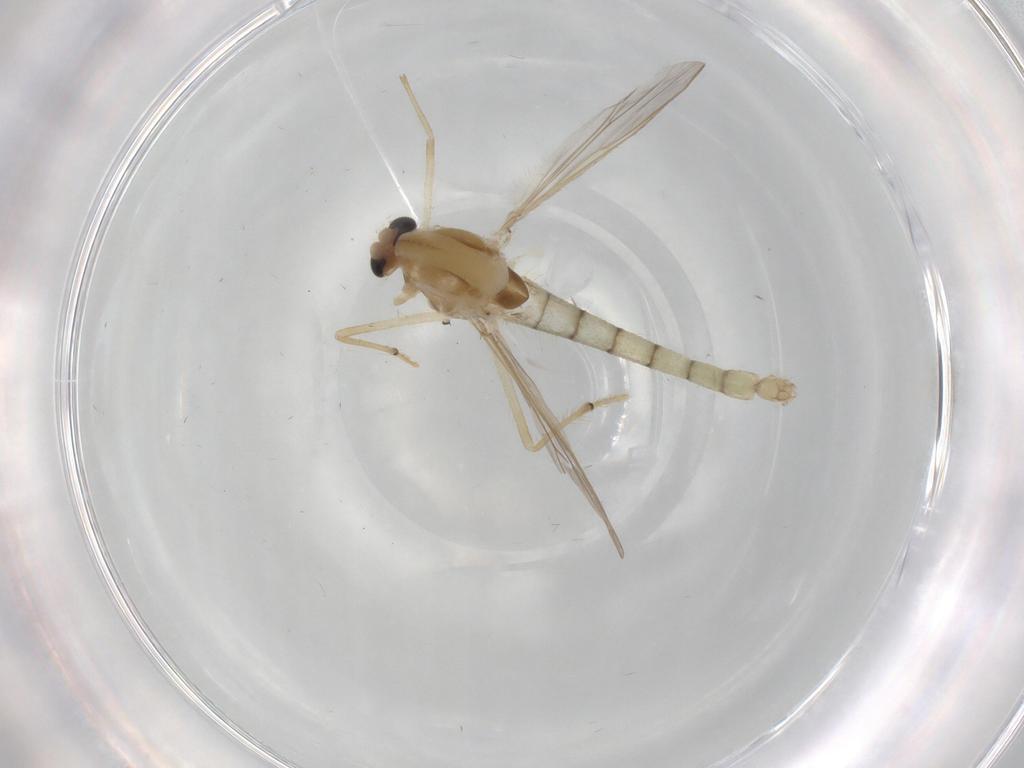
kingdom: Animalia
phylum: Arthropoda
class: Insecta
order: Diptera
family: Chironomidae
